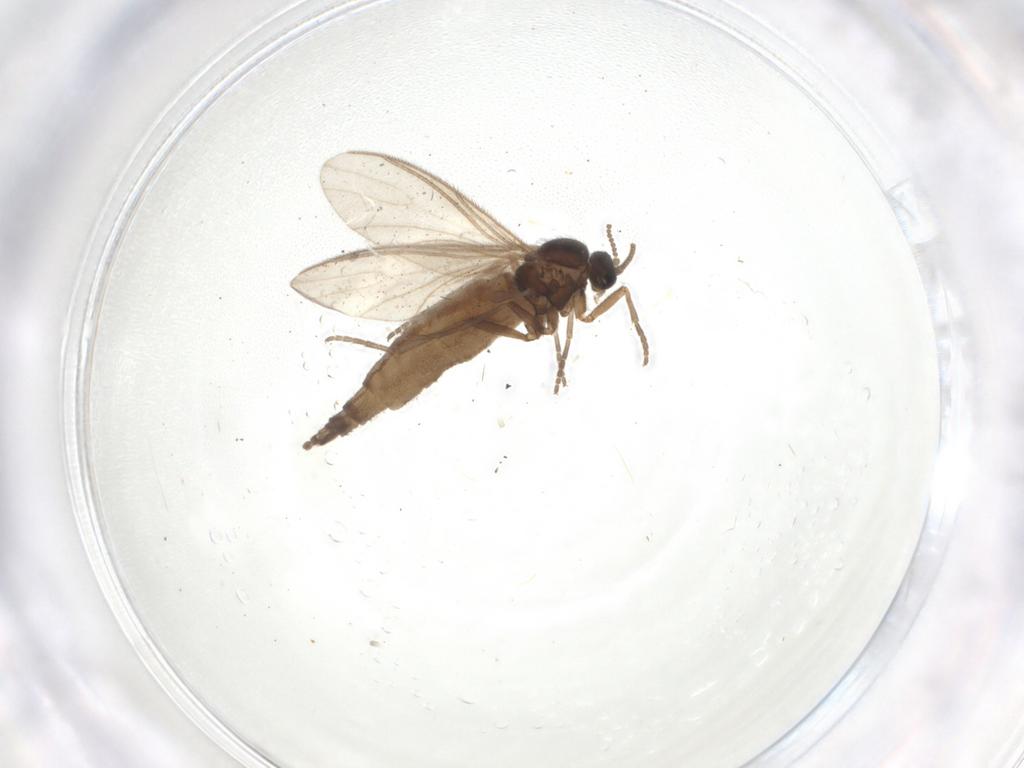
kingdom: Animalia
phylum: Arthropoda
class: Insecta
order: Diptera
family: Sciaridae
